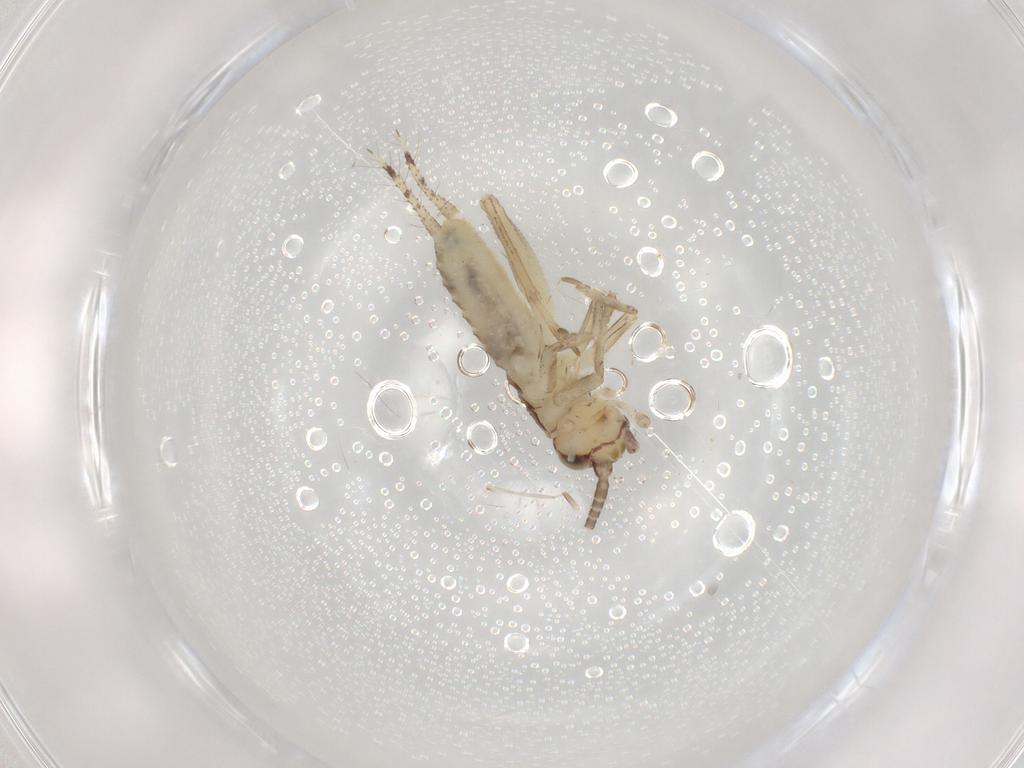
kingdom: Animalia
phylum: Arthropoda
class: Insecta
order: Orthoptera
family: Gryllidae
